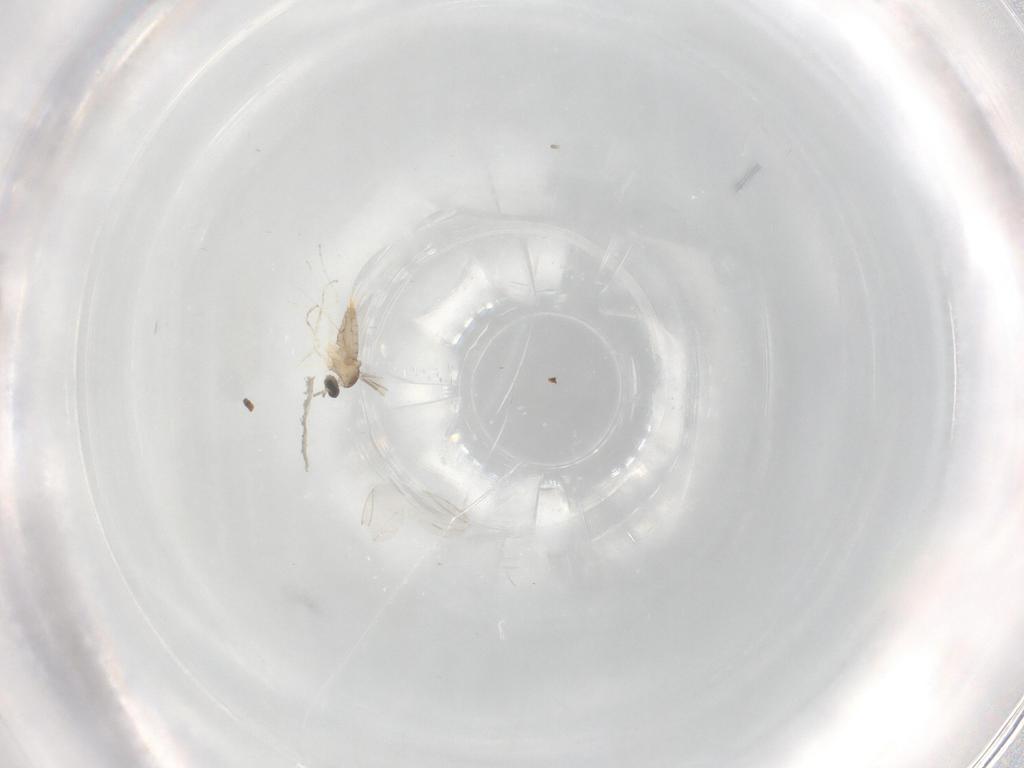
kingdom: Animalia
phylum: Arthropoda
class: Insecta
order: Diptera
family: Cecidomyiidae
